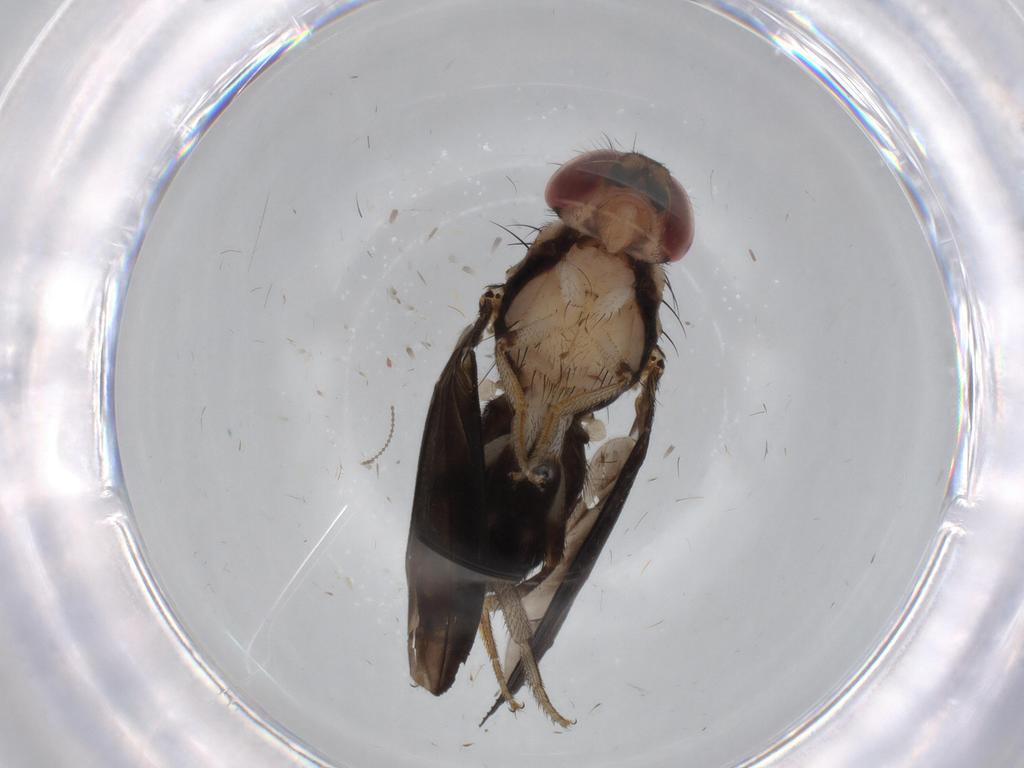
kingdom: Animalia
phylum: Arthropoda
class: Insecta
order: Diptera
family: Drosophilidae
